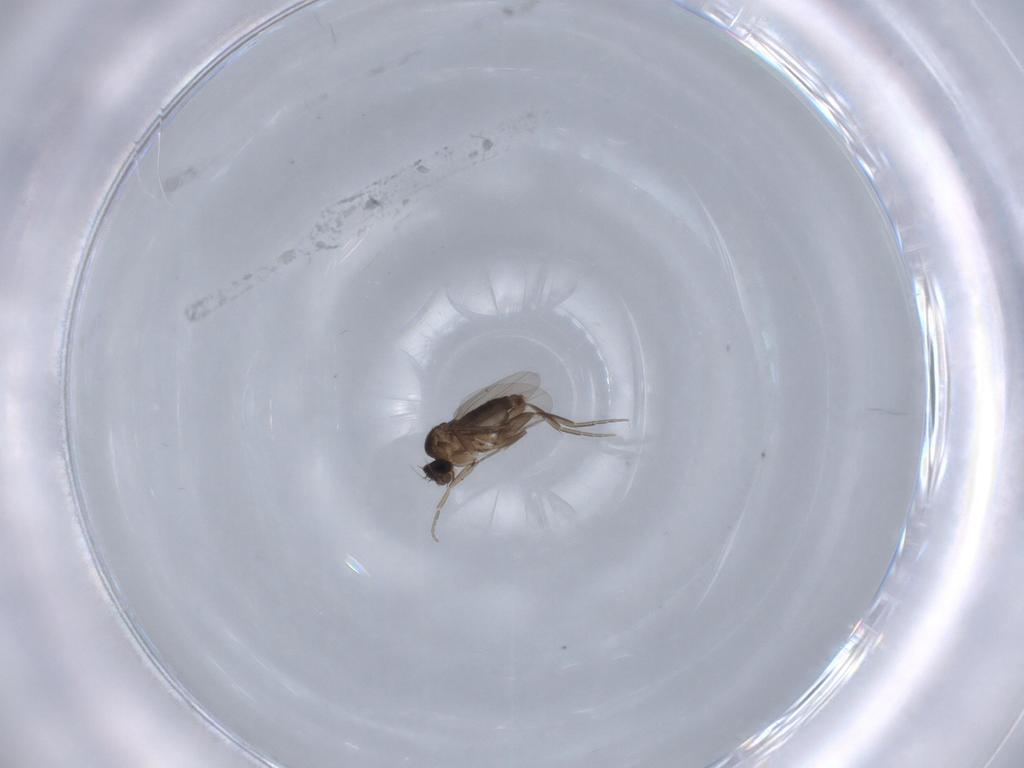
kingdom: Animalia
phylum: Arthropoda
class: Insecta
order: Diptera
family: Phoridae
